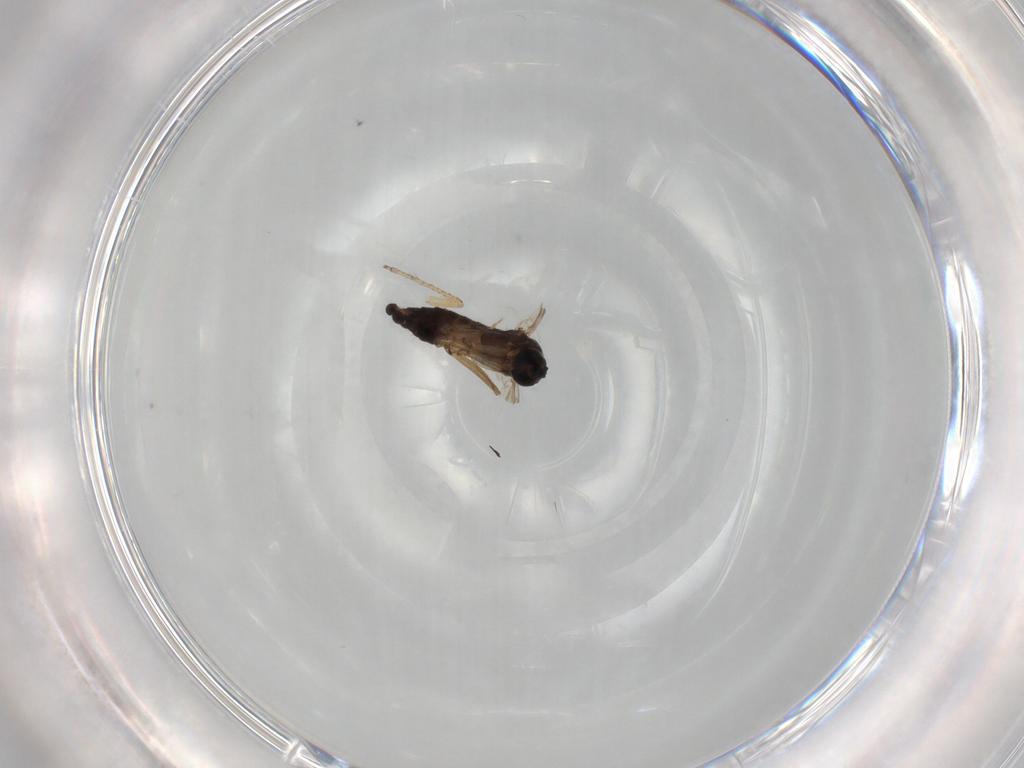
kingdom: Animalia
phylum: Arthropoda
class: Insecta
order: Diptera
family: Sciaridae
